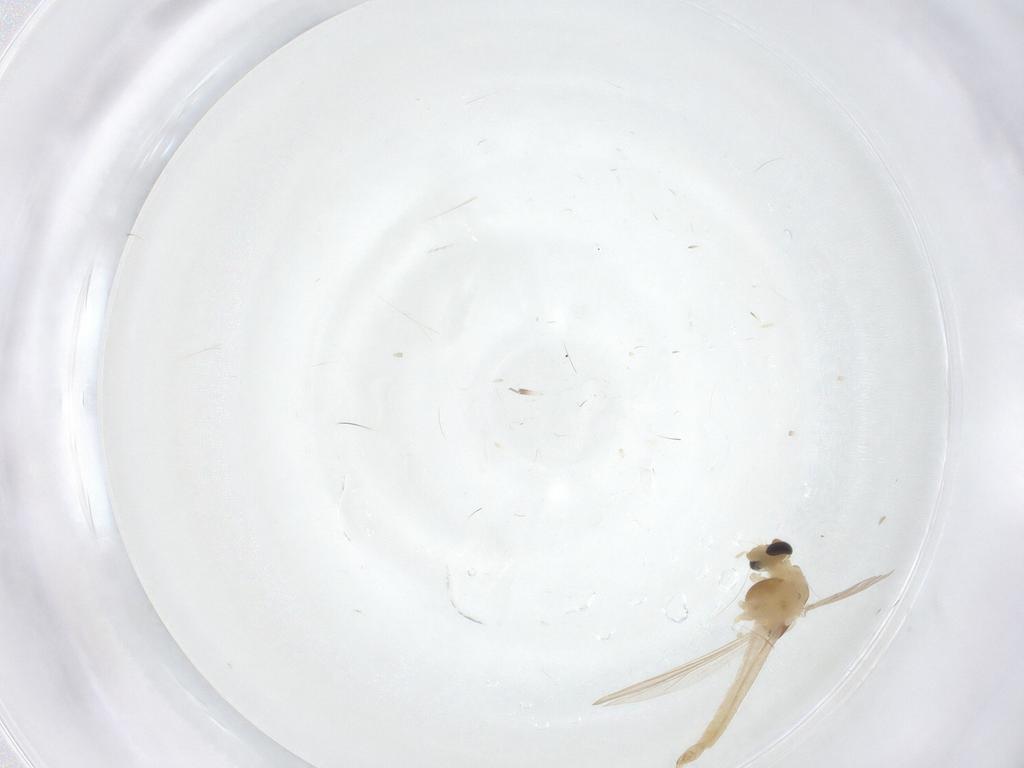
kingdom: Animalia
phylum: Arthropoda
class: Insecta
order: Diptera
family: Chironomidae
